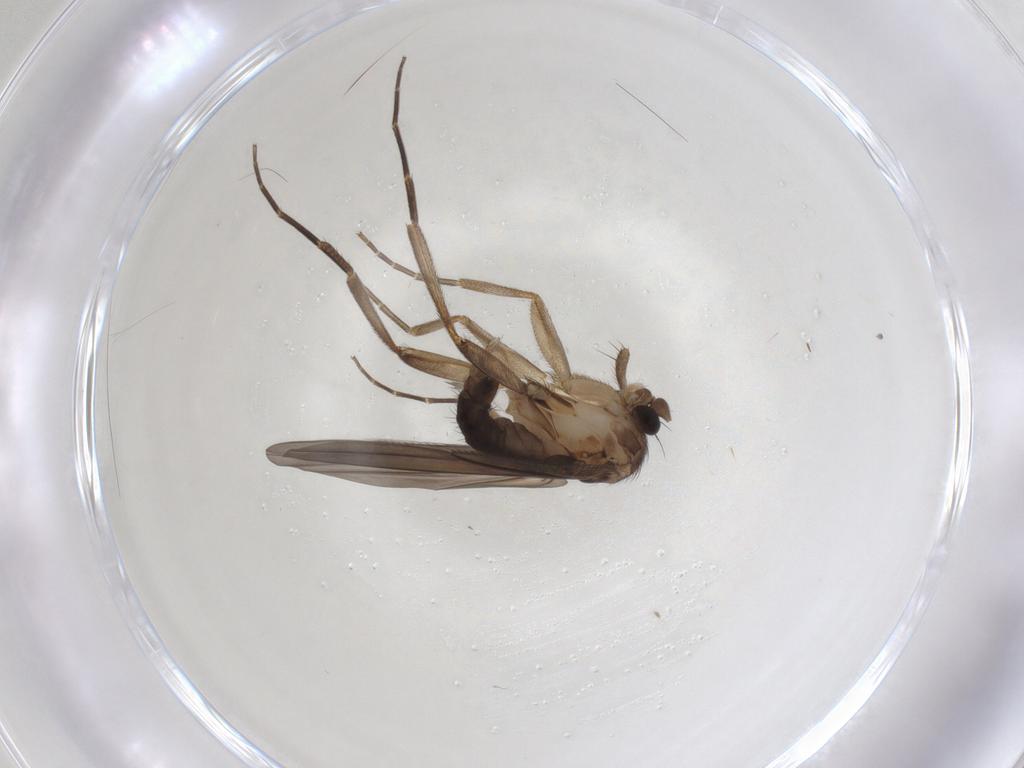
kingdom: Animalia
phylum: Arthropoda
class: Insecta
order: Diptera
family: Phoridae
